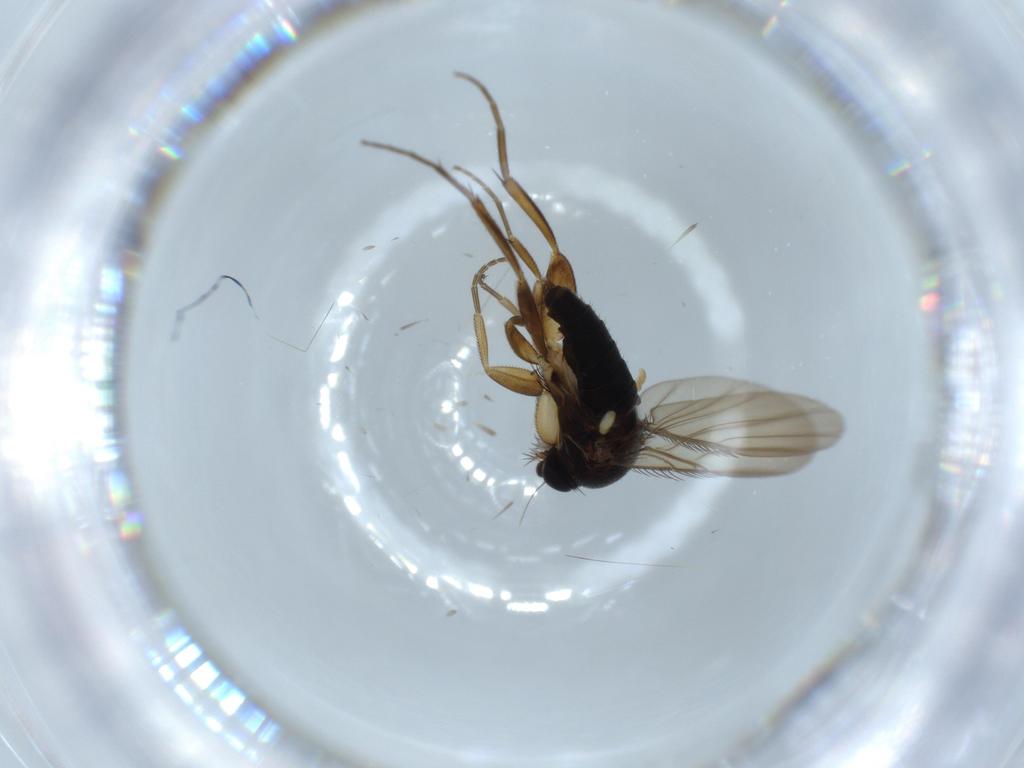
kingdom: Animalia
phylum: Arthropoda
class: Insecta
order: Diptera
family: Phoridae
